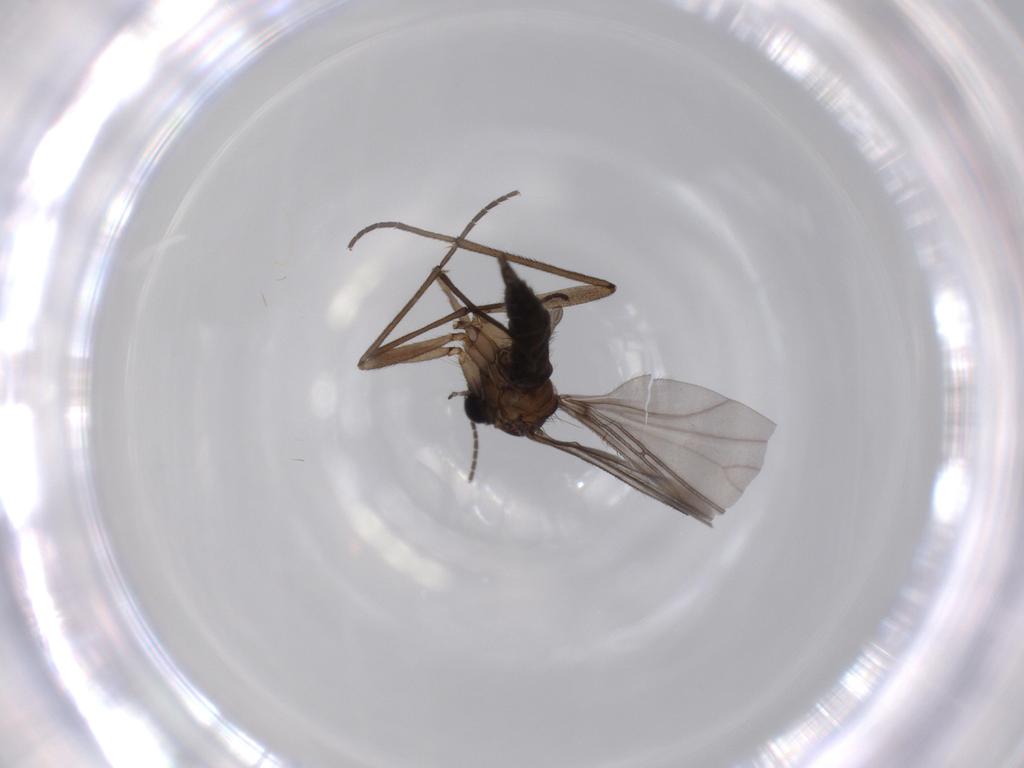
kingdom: Animalia
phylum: Arthropoda
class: Insecta
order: Diptera
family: Sciaridae
